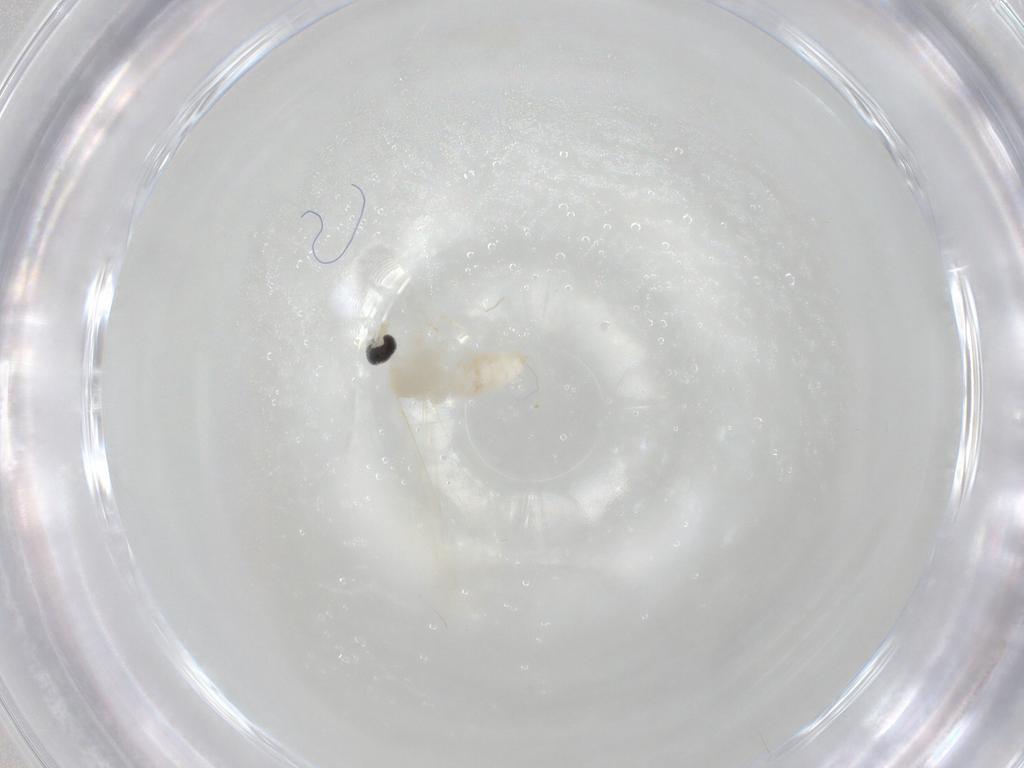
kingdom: Animalia
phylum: Arthropoda
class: Insecta
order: Diptera
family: Cecidomyiidae
